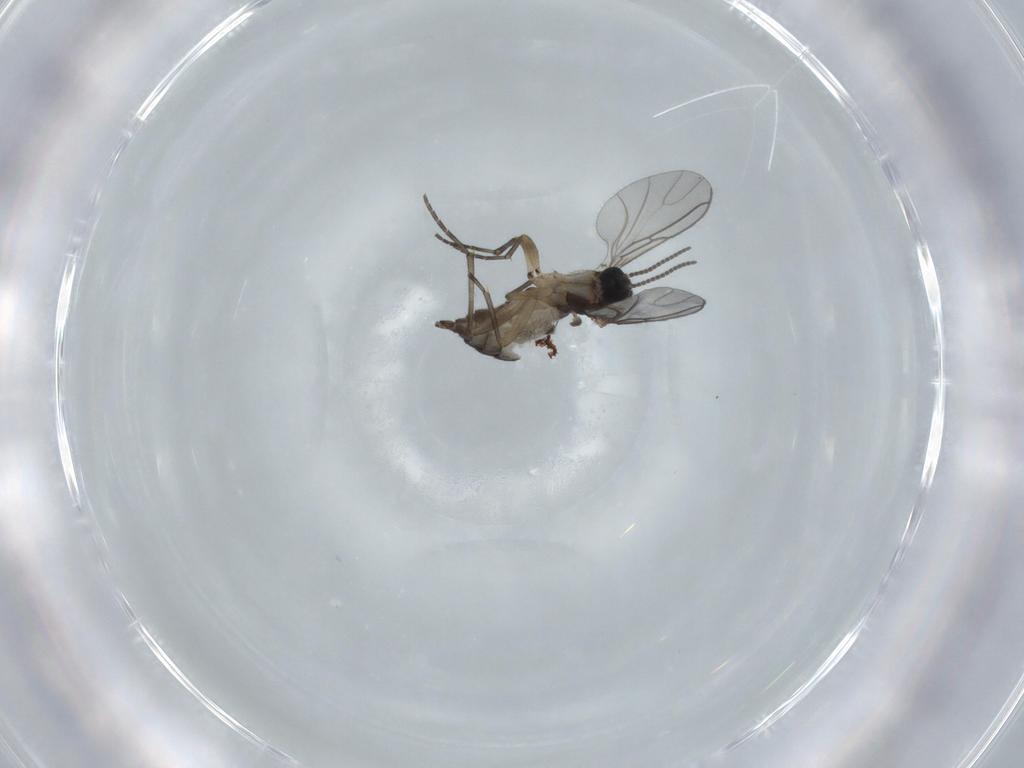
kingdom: Animalia
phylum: Arthropoda
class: Insecta
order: Diptera
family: Sciaridae
